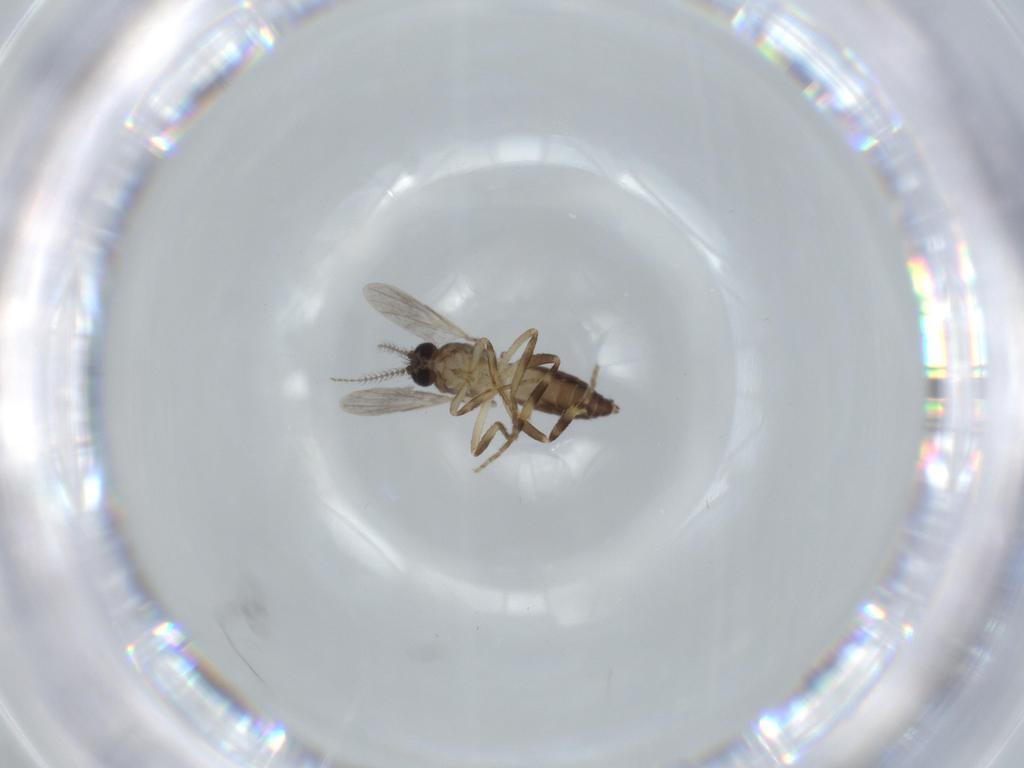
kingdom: Animalia
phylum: Arthropoda
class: Insecta
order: Diptera
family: Ceratopogonidae
